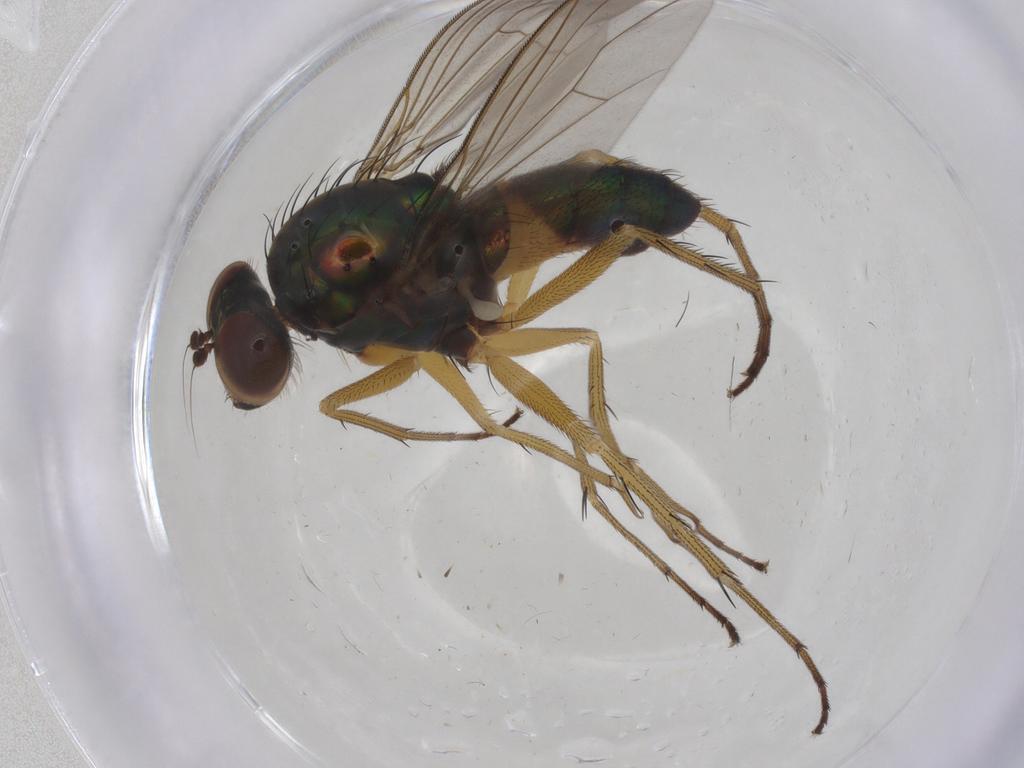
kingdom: Animalia
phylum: Arthropoda
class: Insecta
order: Diptera
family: Dolichopodidae
